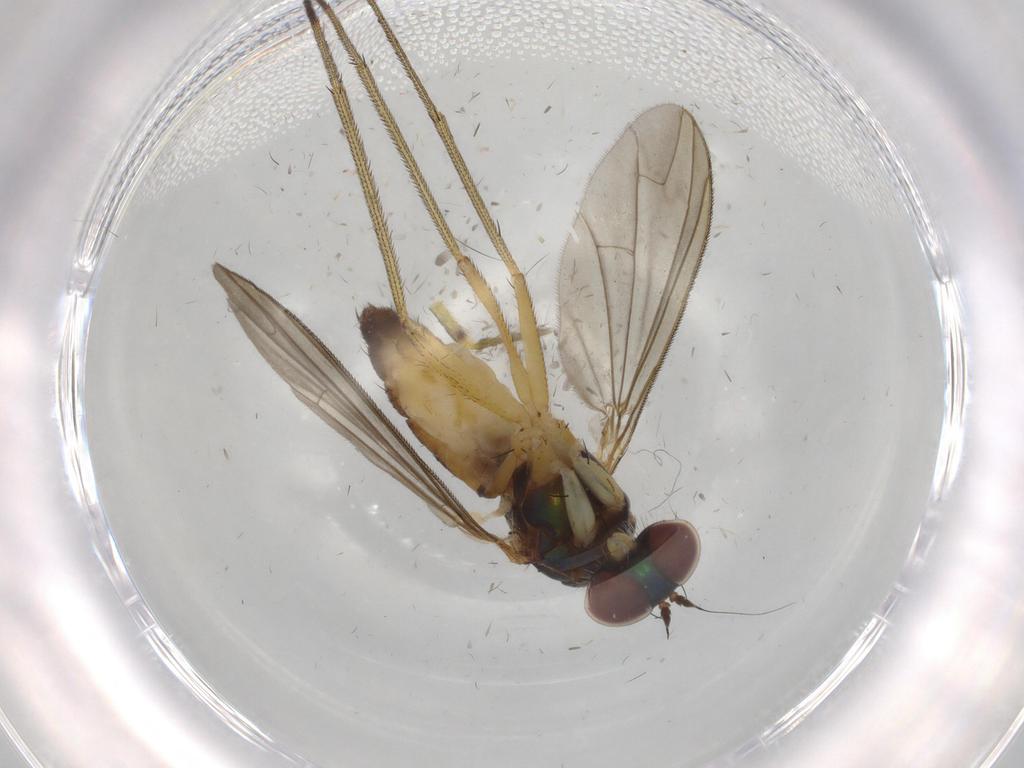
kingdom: Animalia
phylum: Arthropoda
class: Insecta
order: Diptera
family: Dolichopodidae
